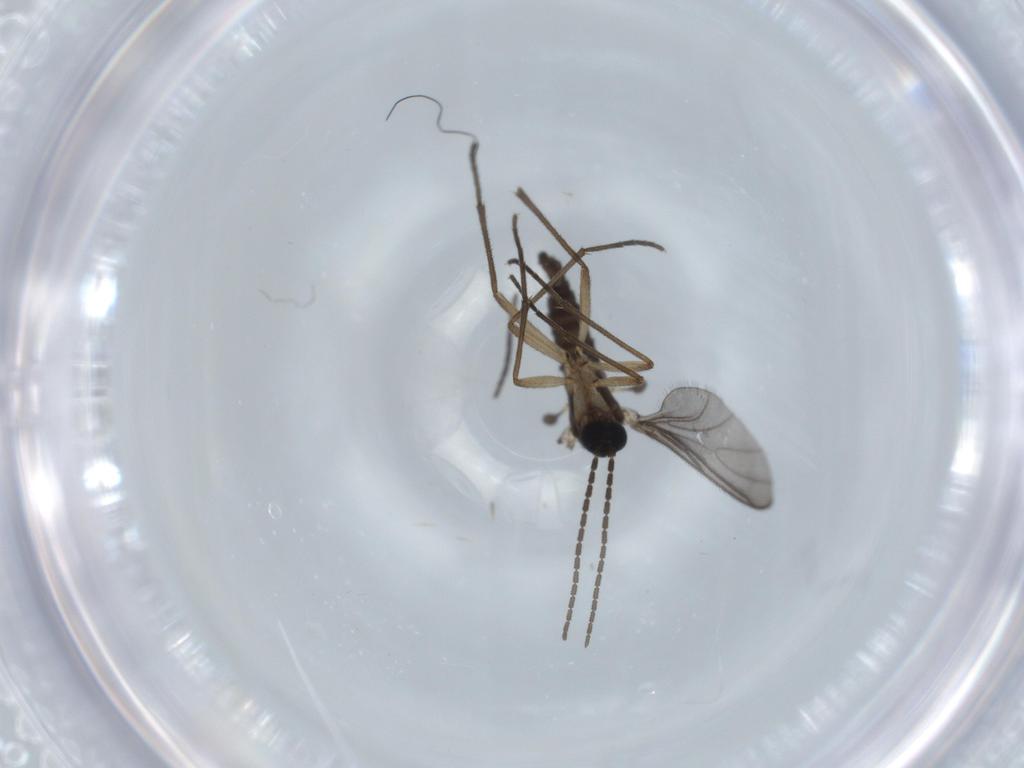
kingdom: Animalia
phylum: Arthropoda
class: Insecta
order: Diptera
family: Sciaridae
